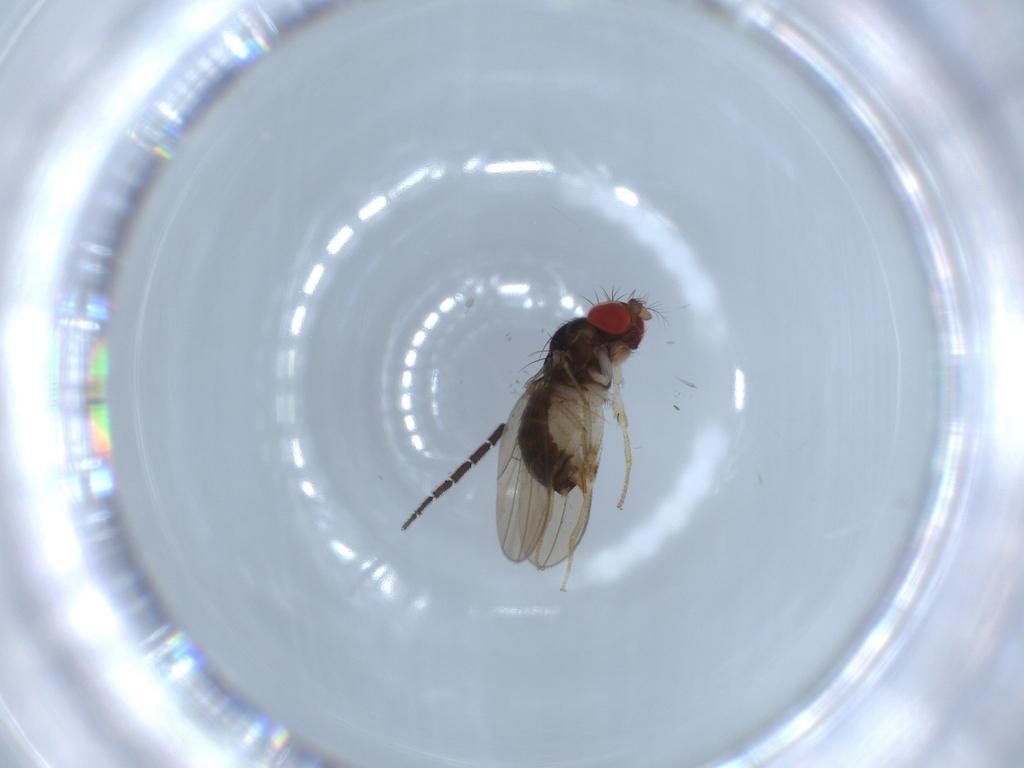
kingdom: Animalia
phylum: Arthropoda
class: Insecta
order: Diptera
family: Drosophilidae
